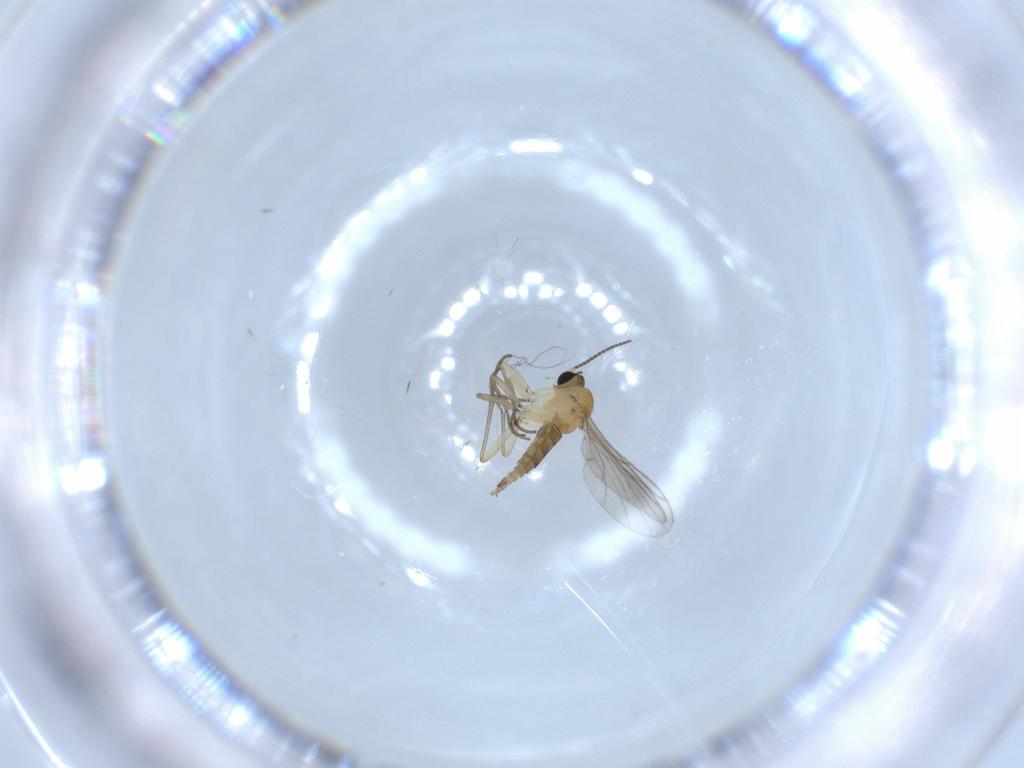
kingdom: Animalia
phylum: Arthropoda
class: Insecta
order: Diptera
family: Sciaridae
